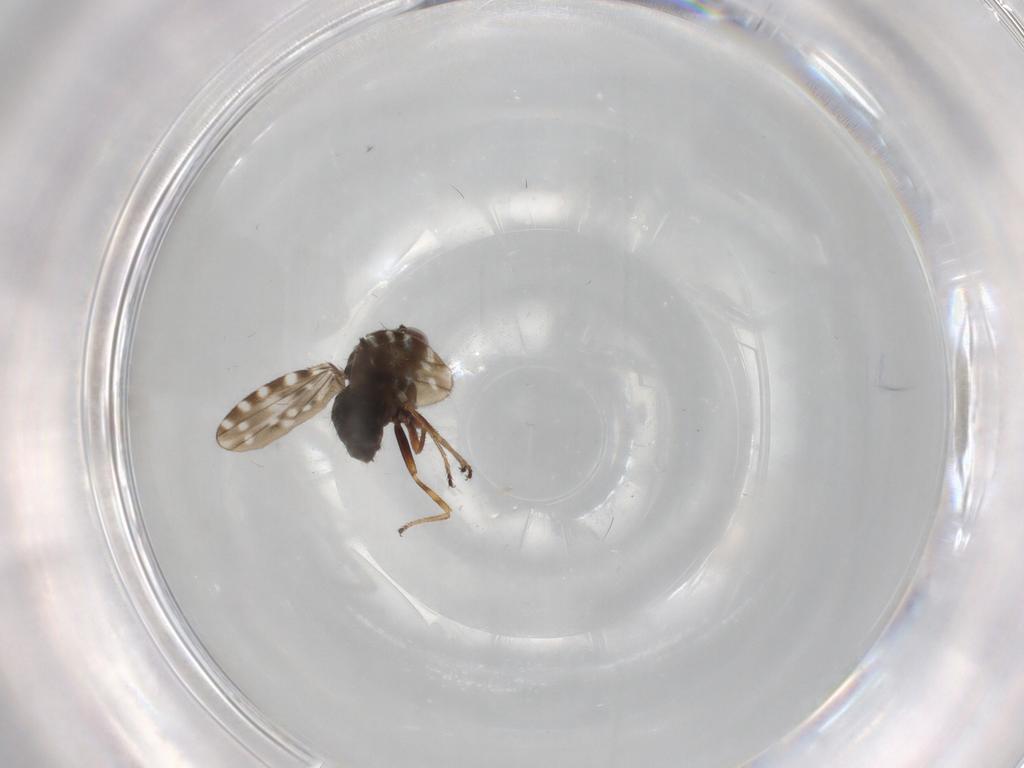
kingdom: Animalia
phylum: Arthropoda
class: Insecta
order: Diptera
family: Ephydridae
